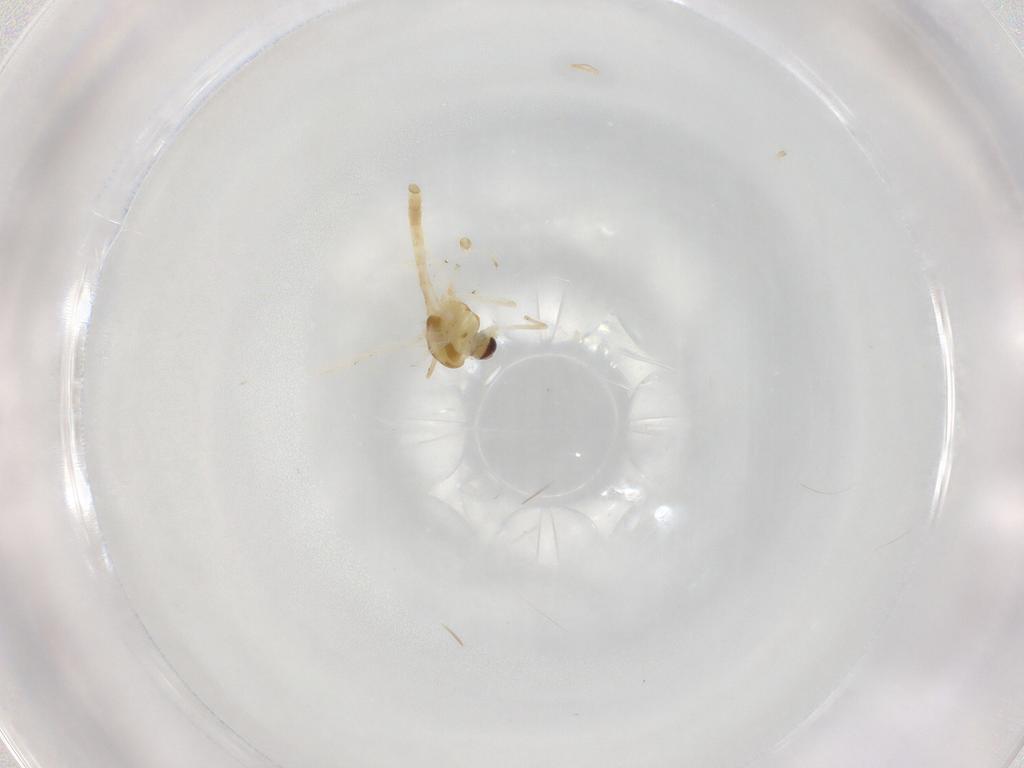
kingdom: Animalia
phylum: Arthropoda
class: Insecta
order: Diptera
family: Cecidomyiidae
